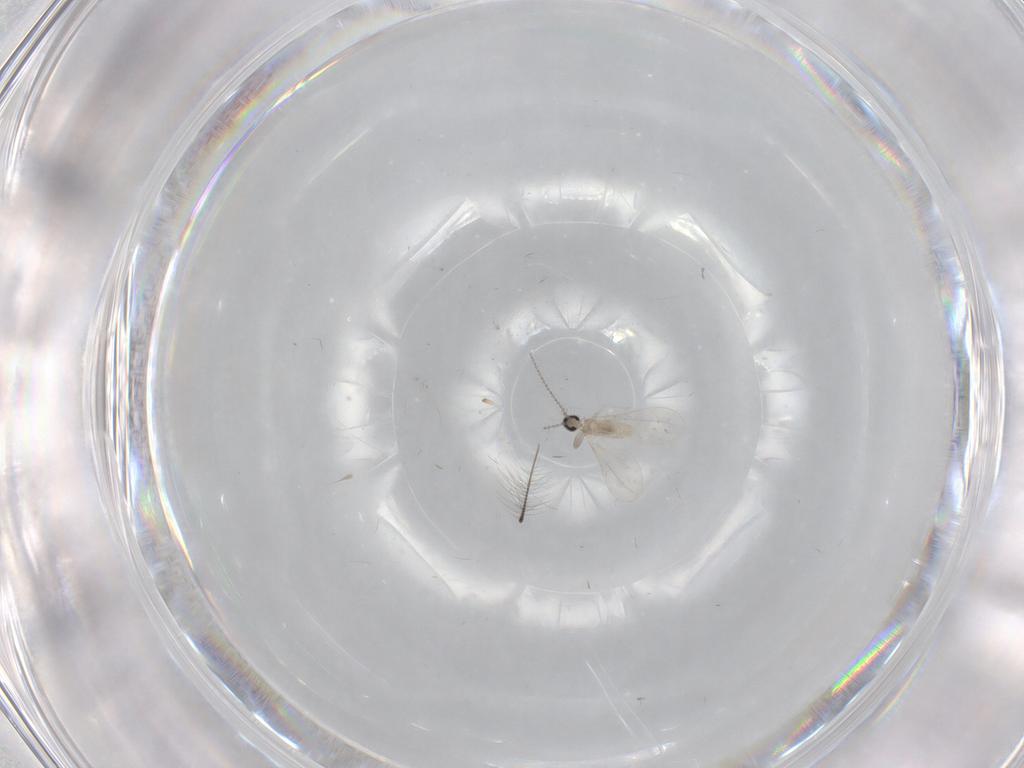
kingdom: Animalia
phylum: Arthropoda
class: Insecta
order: Diptera
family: Chironomidae
